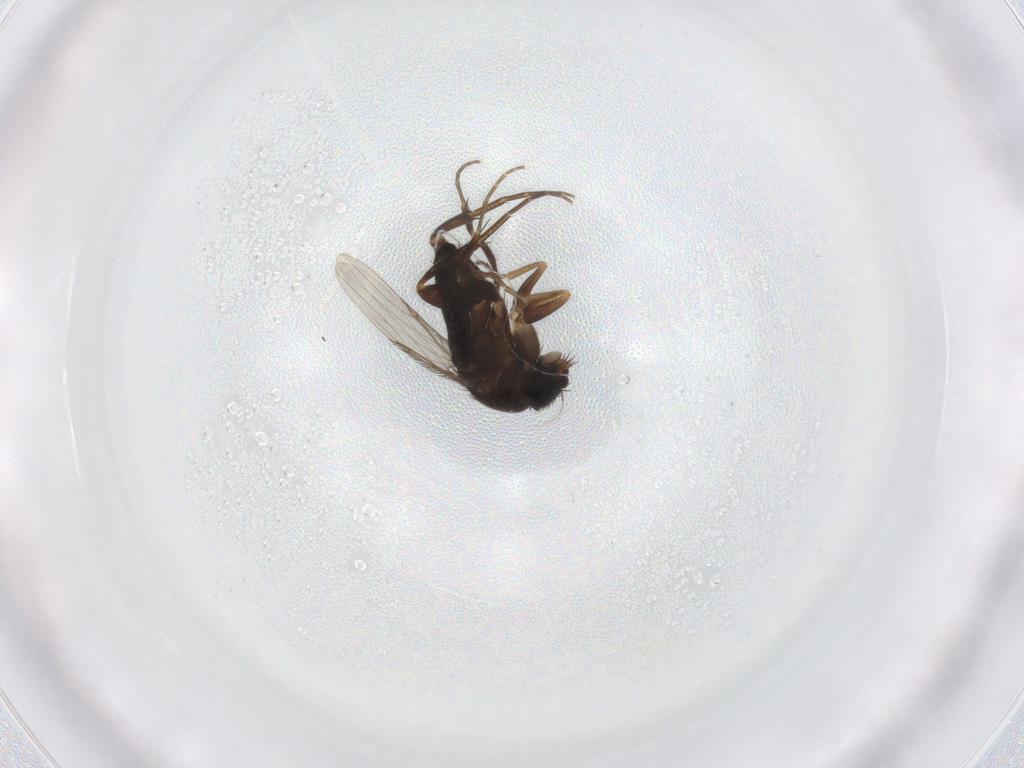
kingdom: Animalia
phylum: Arthropoda
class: Insecta
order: Diptera
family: Phoridae
